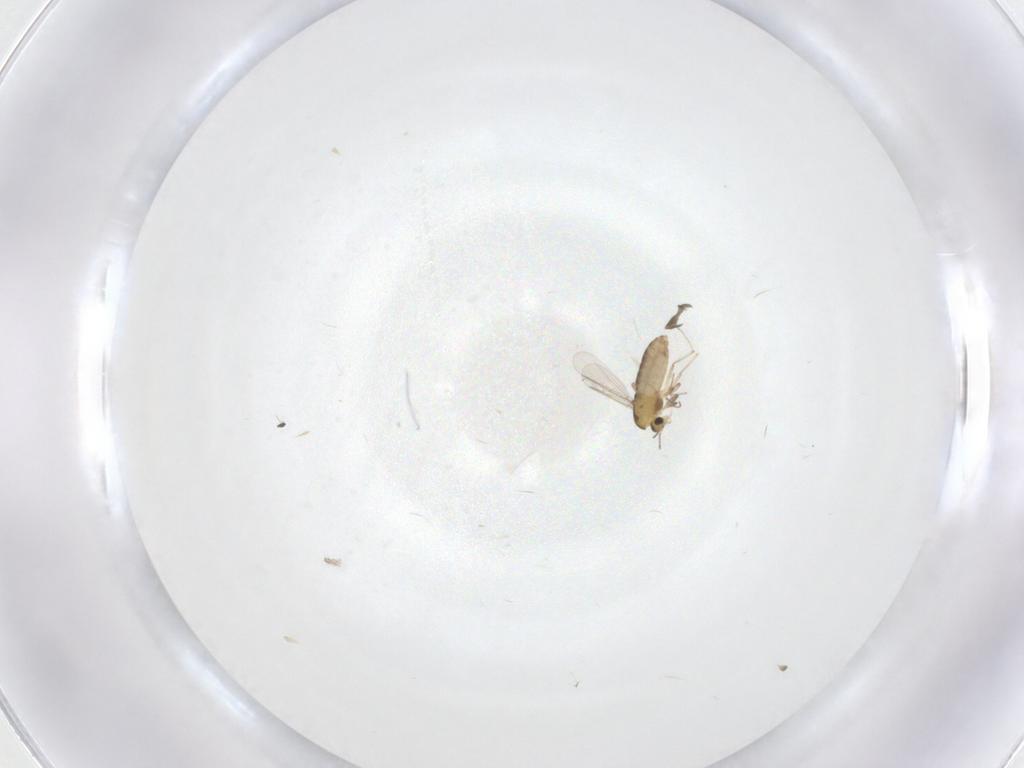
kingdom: Animalia
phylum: Arthropoda
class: Insecta
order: Diptera
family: Chironomidae
